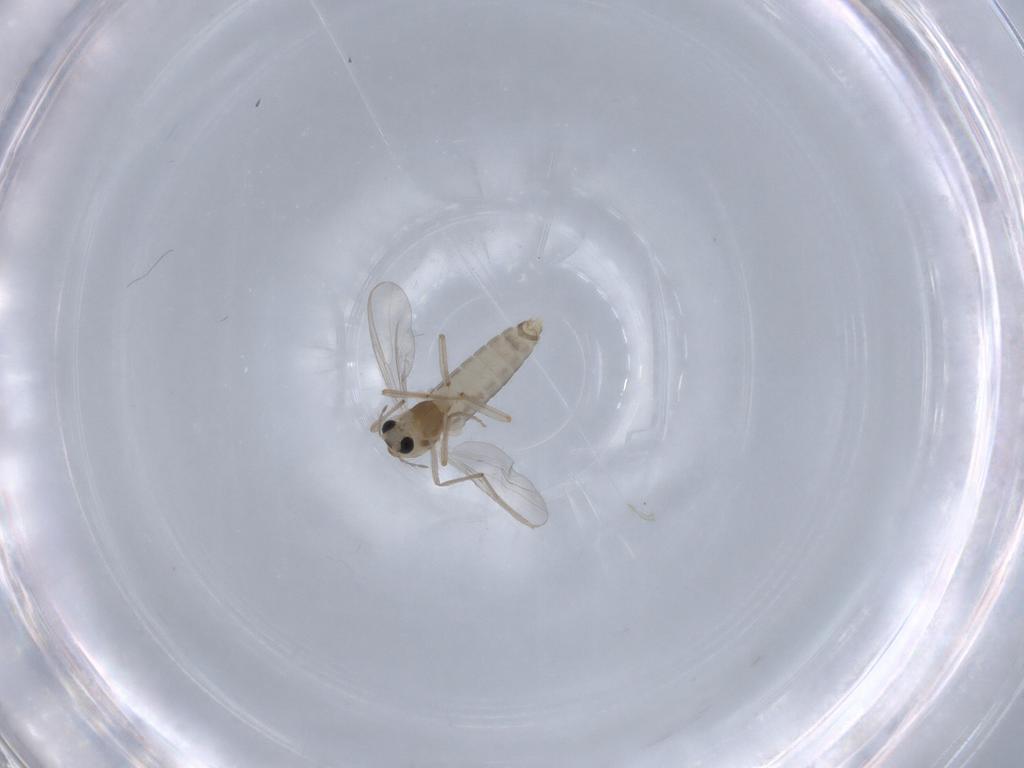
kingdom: Animalia
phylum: Arthropoda
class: Insecta
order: Diptera
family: Chironomidae
